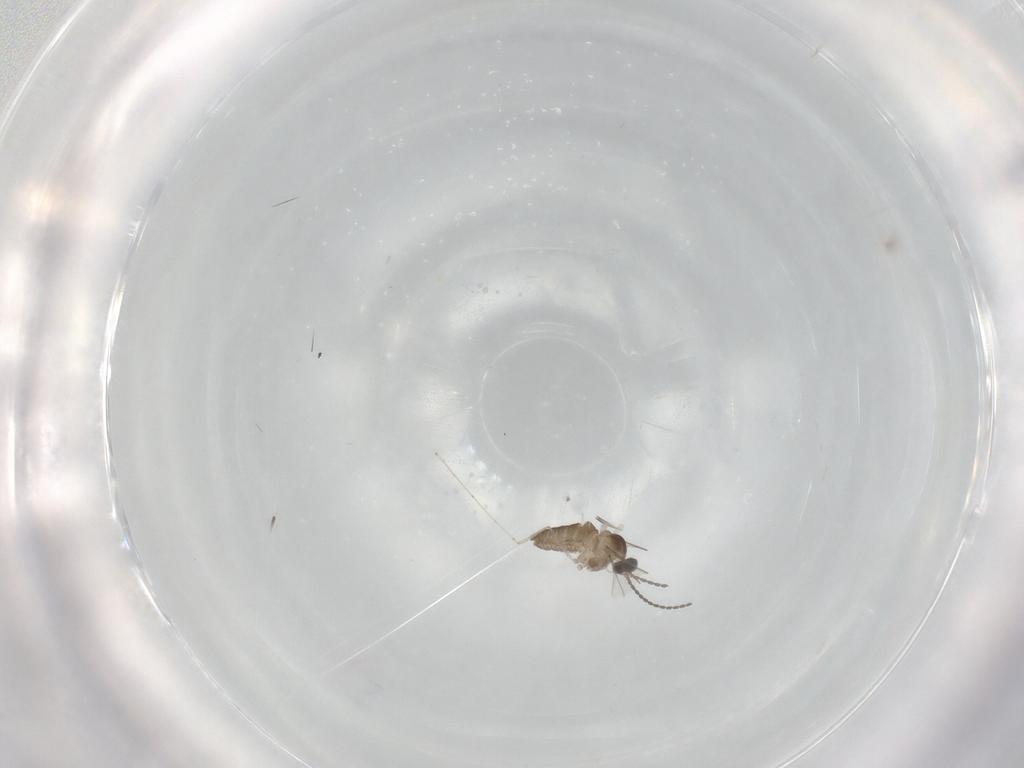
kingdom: Animalia
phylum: Arthropoda
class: Insecta
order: Diptera
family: Cecidomyiidae
